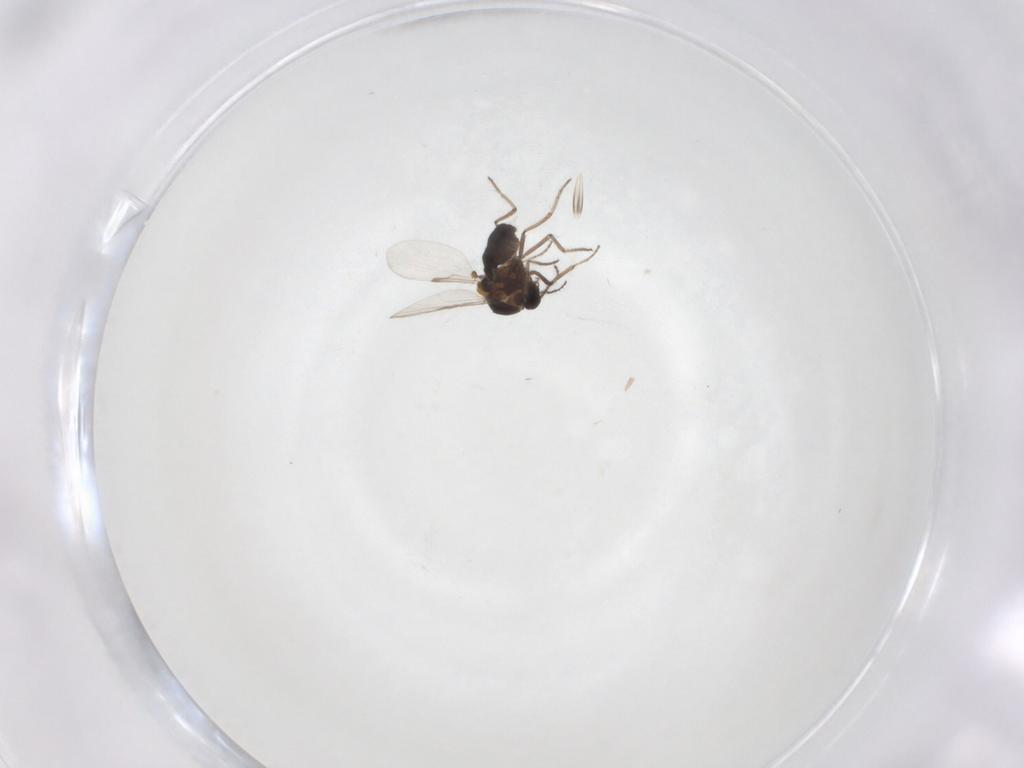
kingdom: Animalia
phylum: Arthropoda
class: Insecta
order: Diptera
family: Ceratopogonidae
